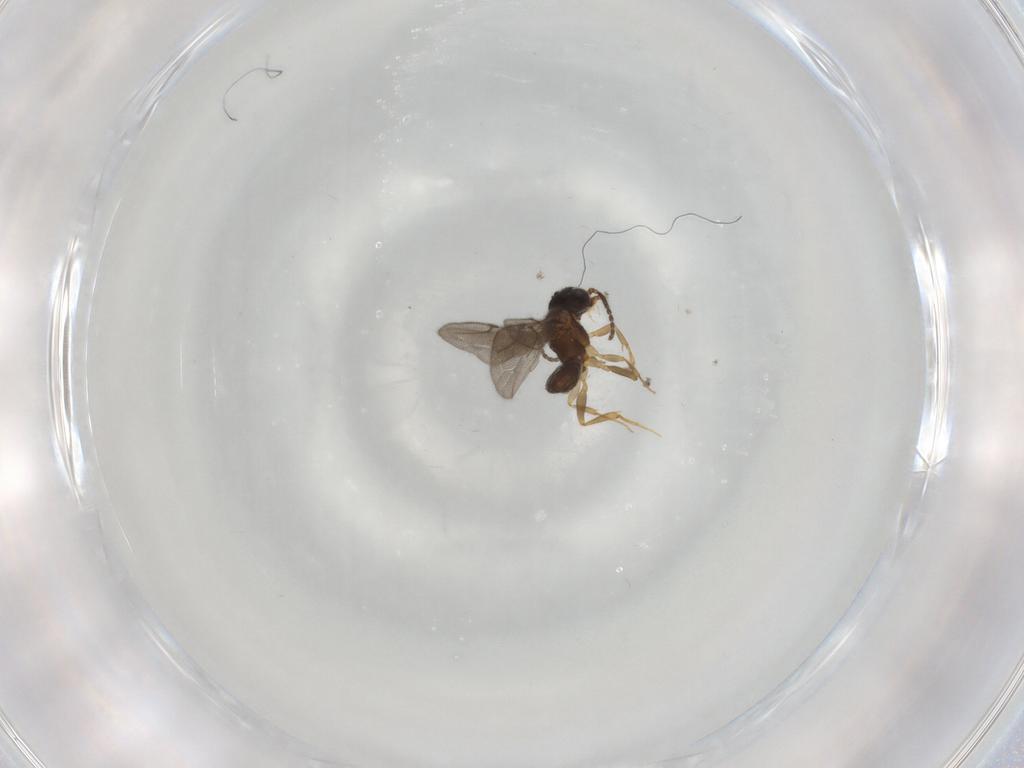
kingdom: Animalia
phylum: Arthropoda
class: Insecta
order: Hymenoptera
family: Bethylidae
